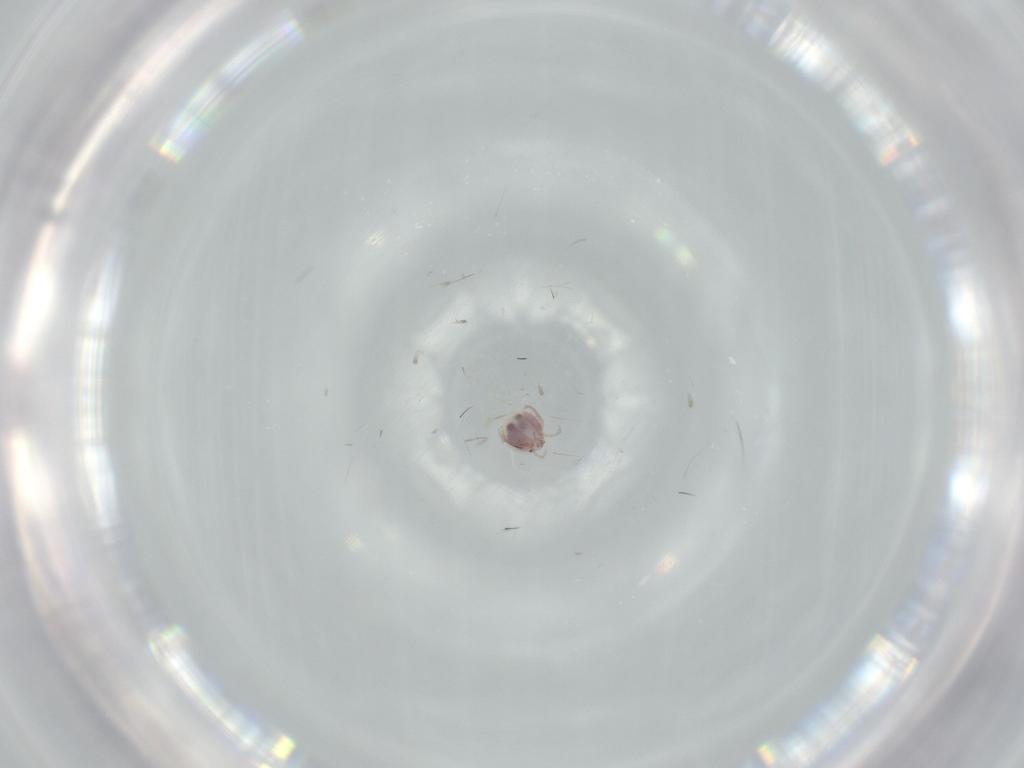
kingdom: Animalia
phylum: Arthropoda
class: Arachnida
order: Trombidiformes
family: Unionicolidae
